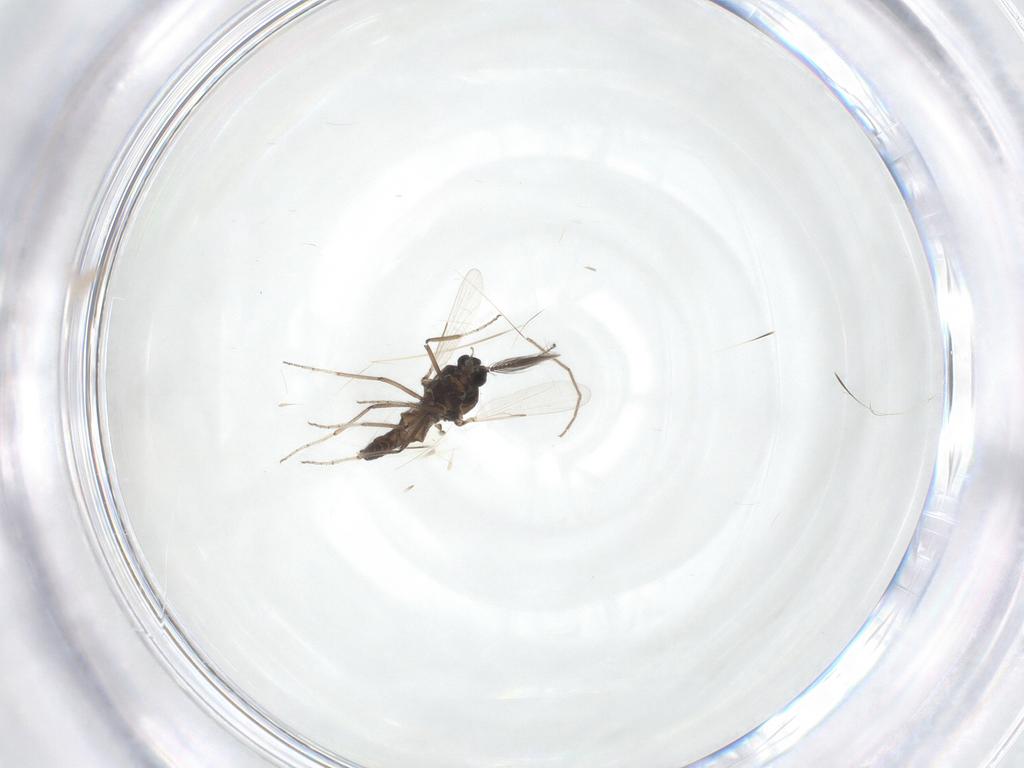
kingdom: Animalia
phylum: Arthropoda
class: Insecta
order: Diptera
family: Ceratopogonidae
